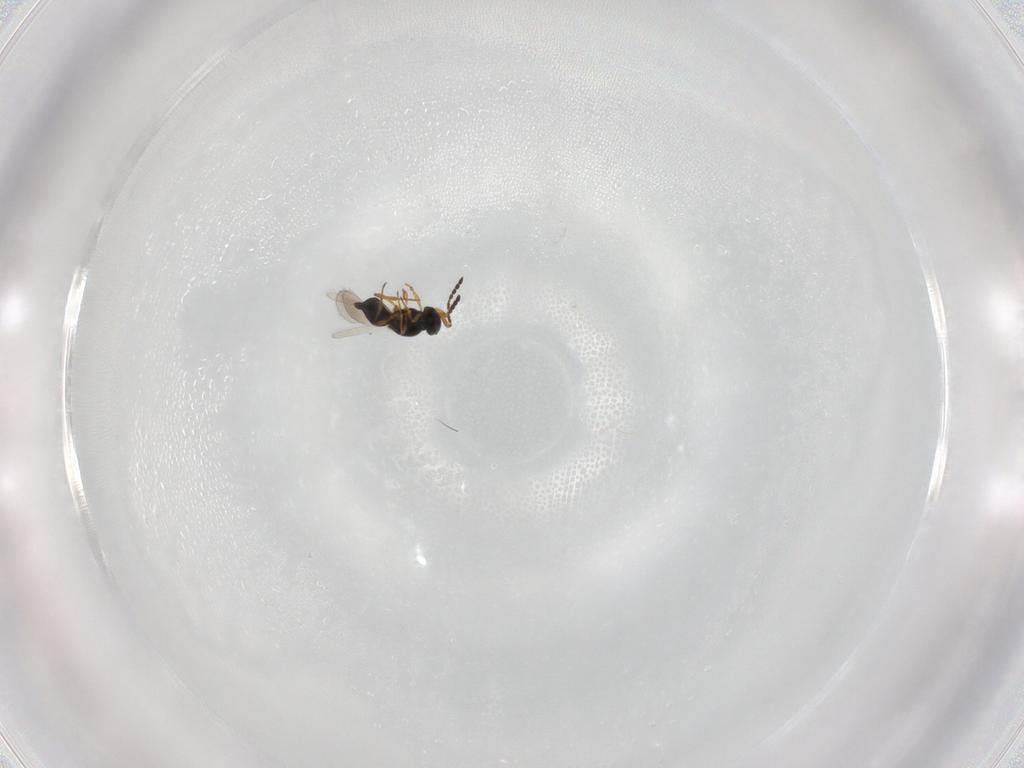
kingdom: Animalia
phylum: Arthropoda
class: Insecta
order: Hymenoptera
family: Platygastridae
